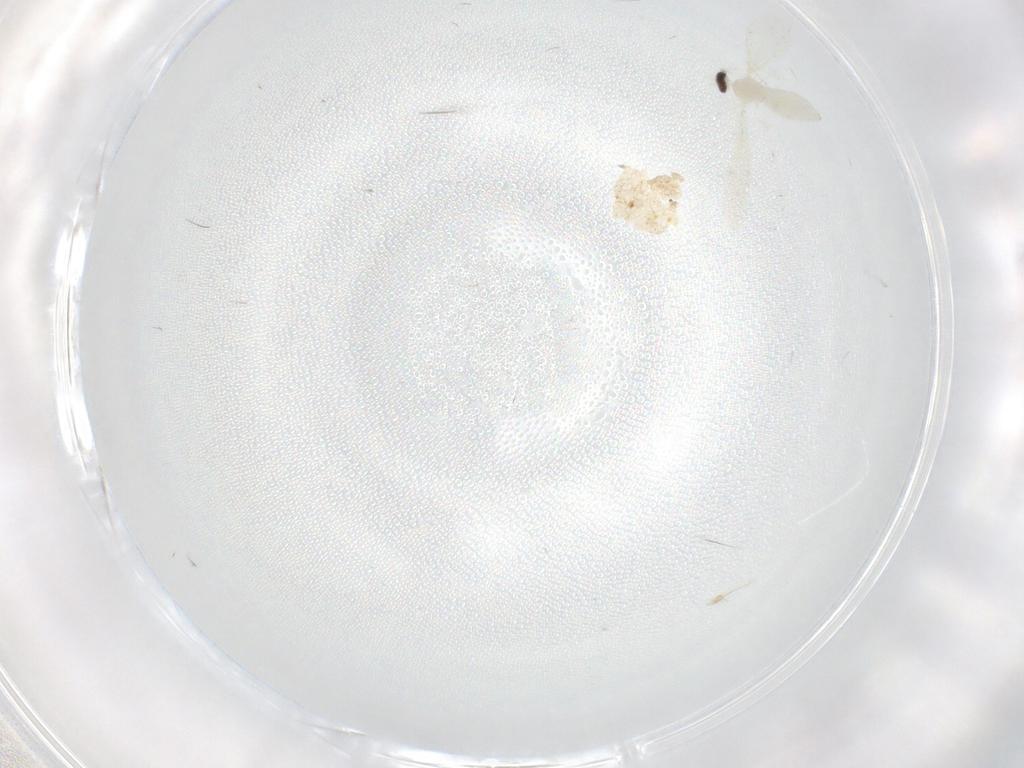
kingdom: Animalia
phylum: Arthropoda
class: Insecta
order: Diptera
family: Cecidomyiidae
